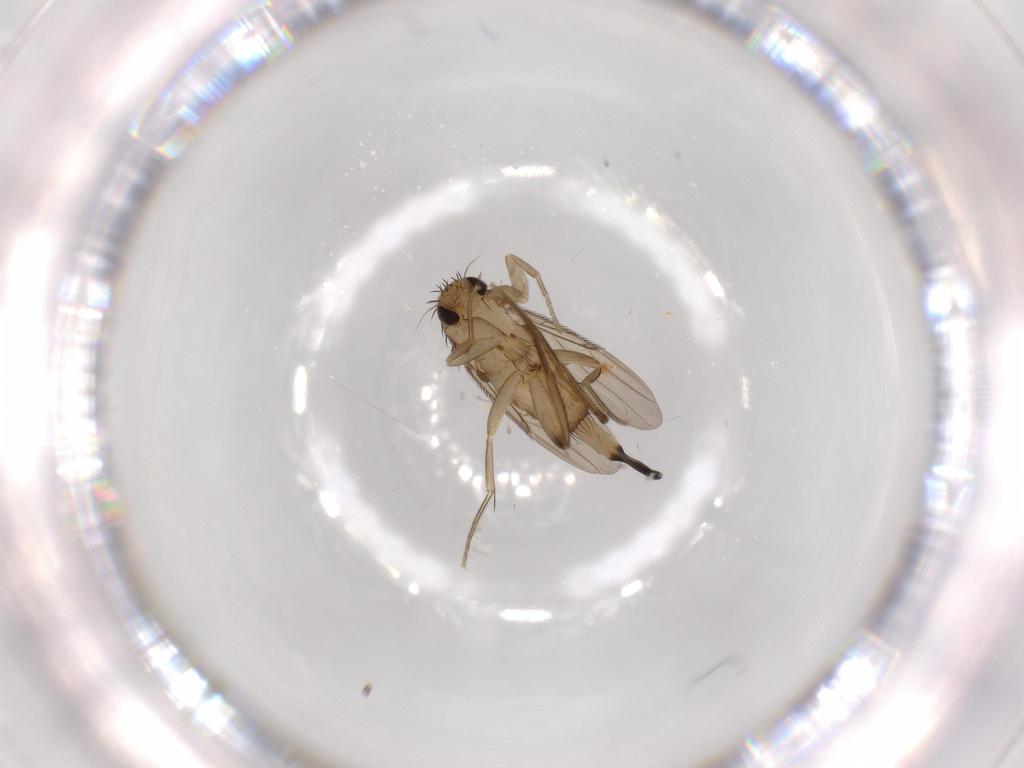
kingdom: Animalia
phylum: Arthropoda
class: Insecta
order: Diptera
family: Phoridae
